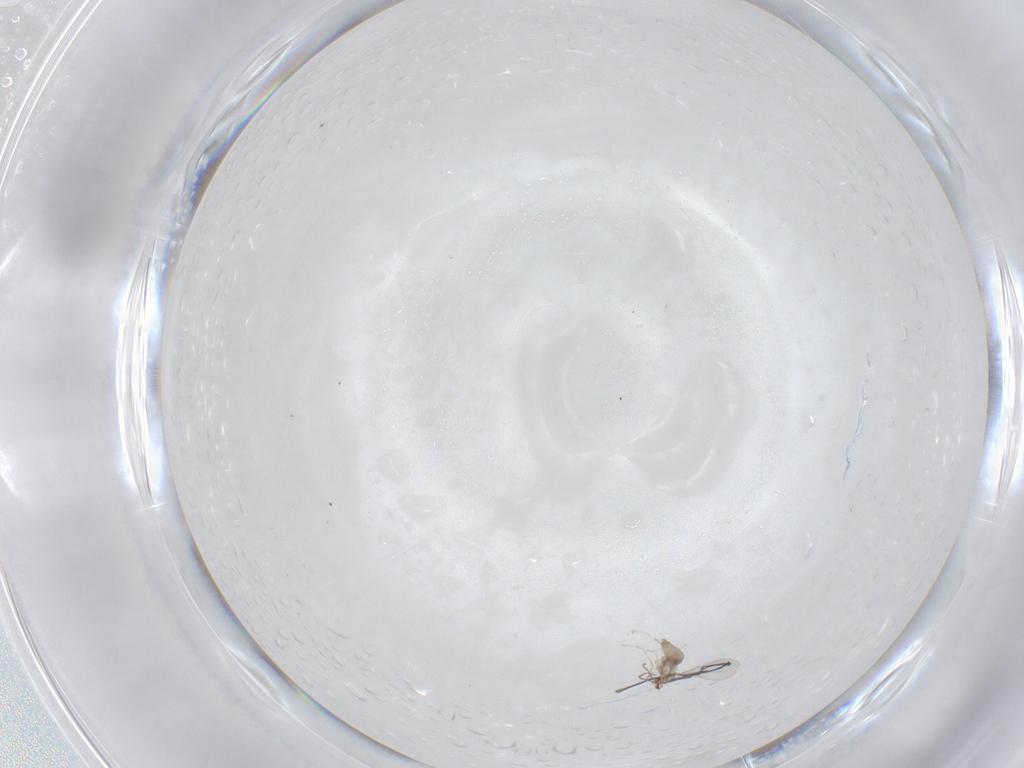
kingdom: Animalia
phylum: Arthropoda
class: Insecta
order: Diptera
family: Cecidomyiidae
